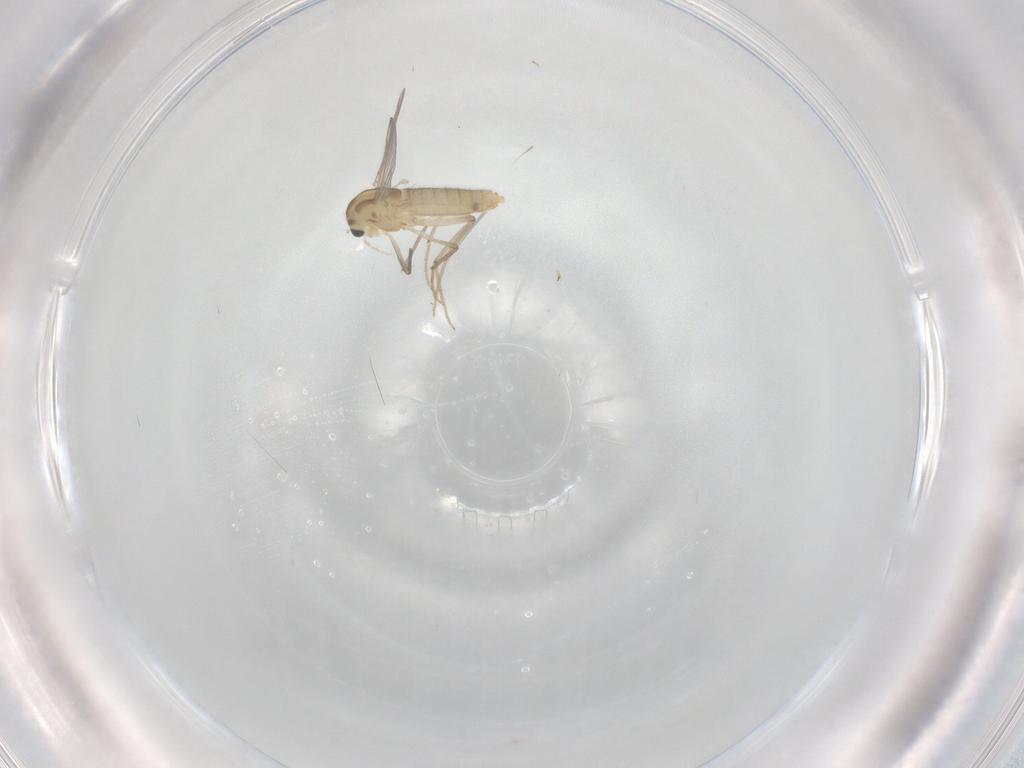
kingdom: Animalia
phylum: Arthropoda
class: Insecta
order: Diptera
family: Chironomidae
